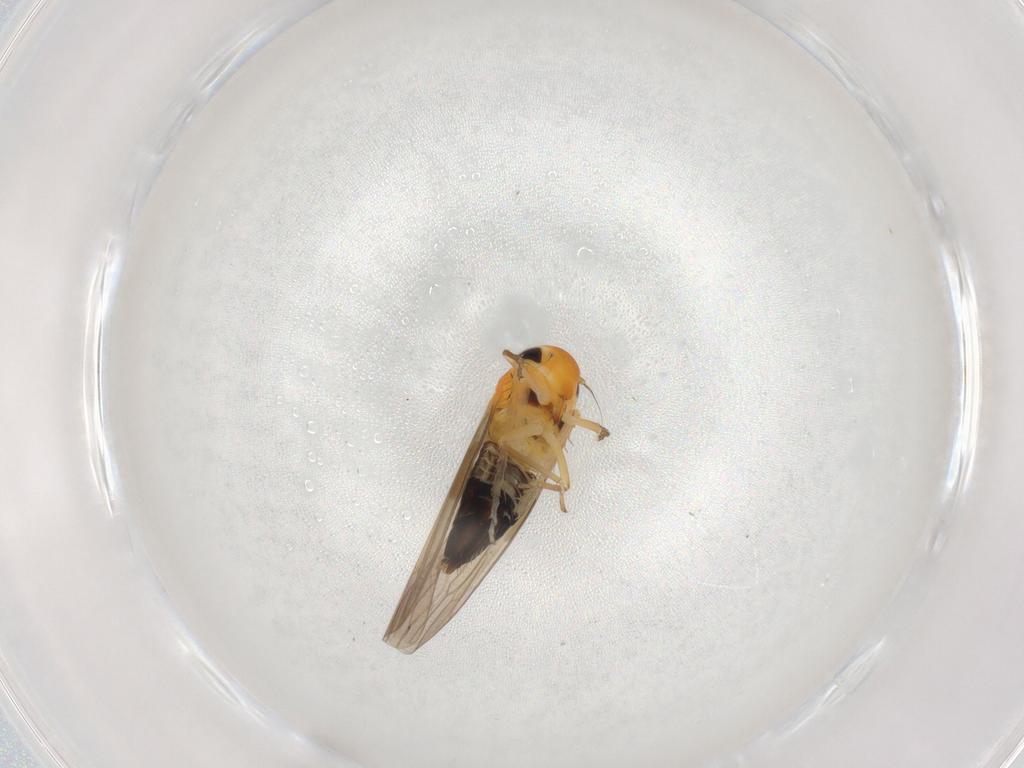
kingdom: Animalia
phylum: Arthropoda
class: Insecta
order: Hemiptera
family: Cicadellidae
